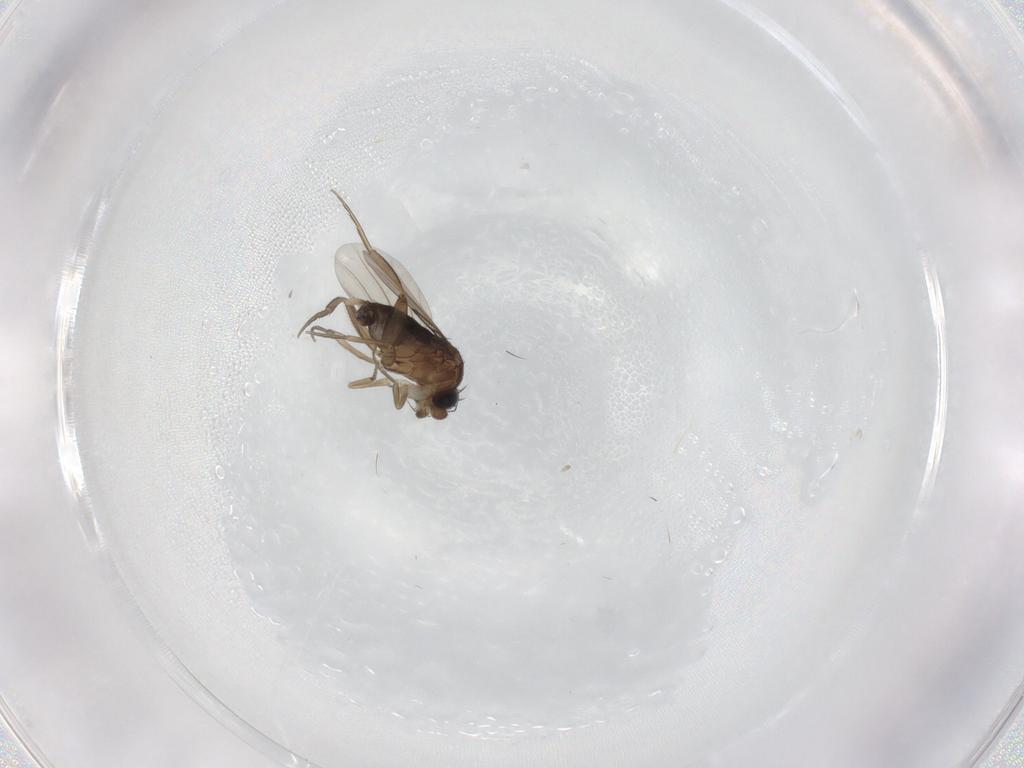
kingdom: Animalia
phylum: Arthropoda
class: Insecta
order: Diptera
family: Phoridae
